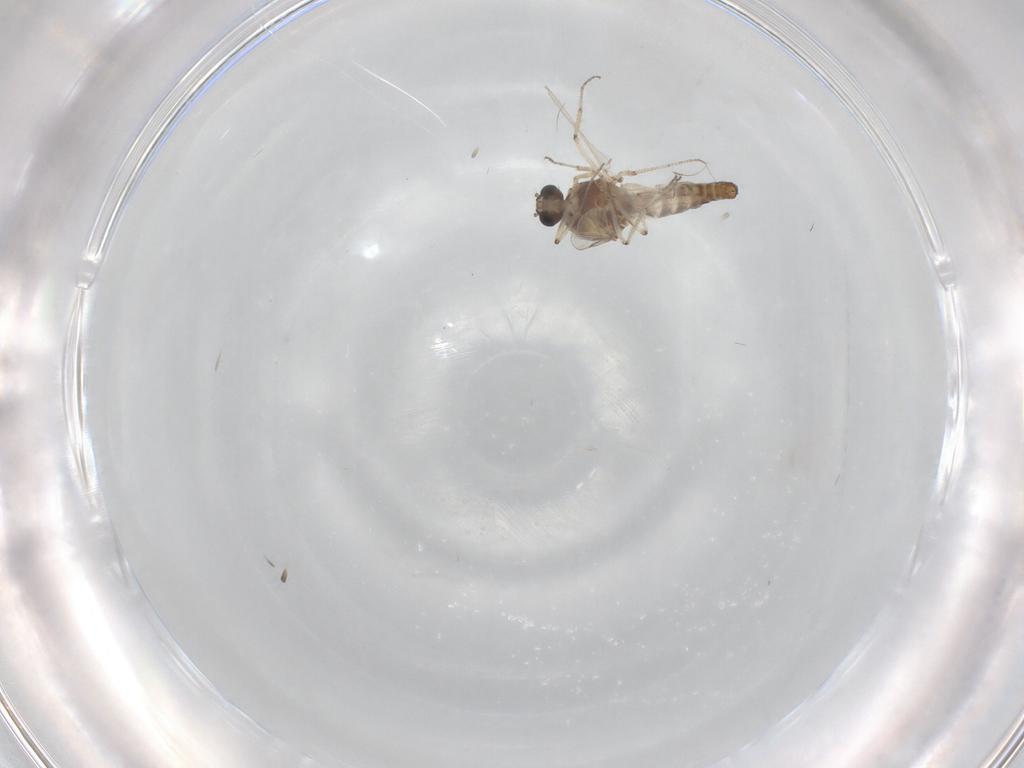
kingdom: Animalia
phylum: Arthropoda
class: Insecta
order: Diptera
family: Ceratopogonidae
